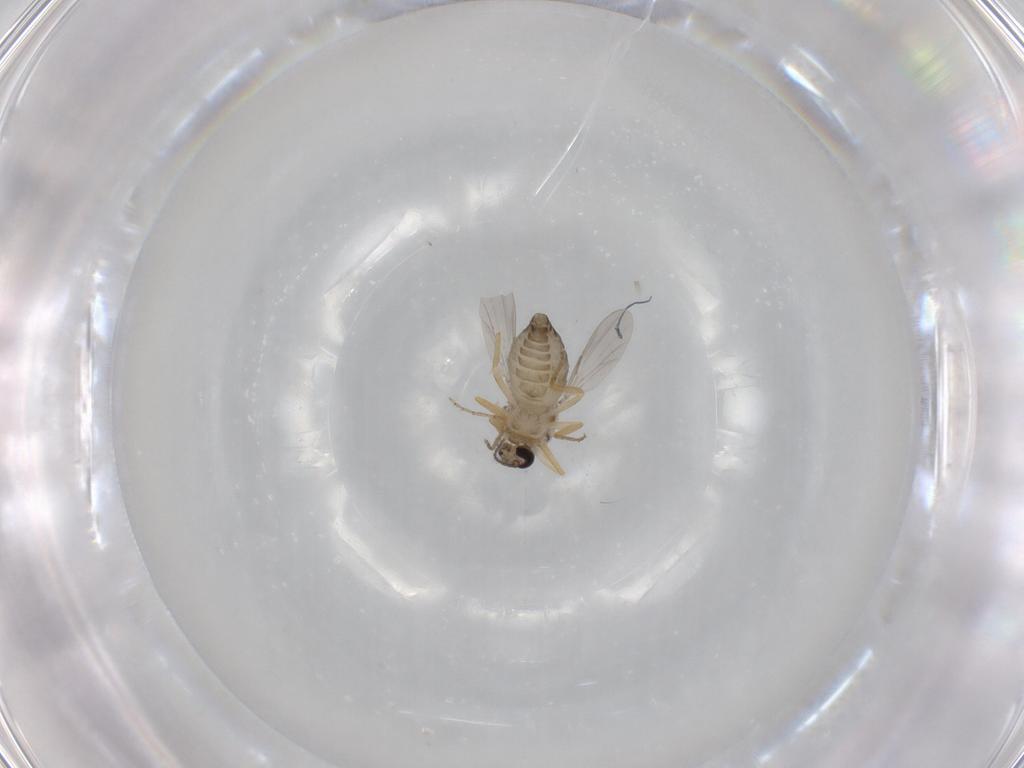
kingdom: Animalia
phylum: Arthropoda
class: Insecta
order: Diptera
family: Ceratopogonidae
